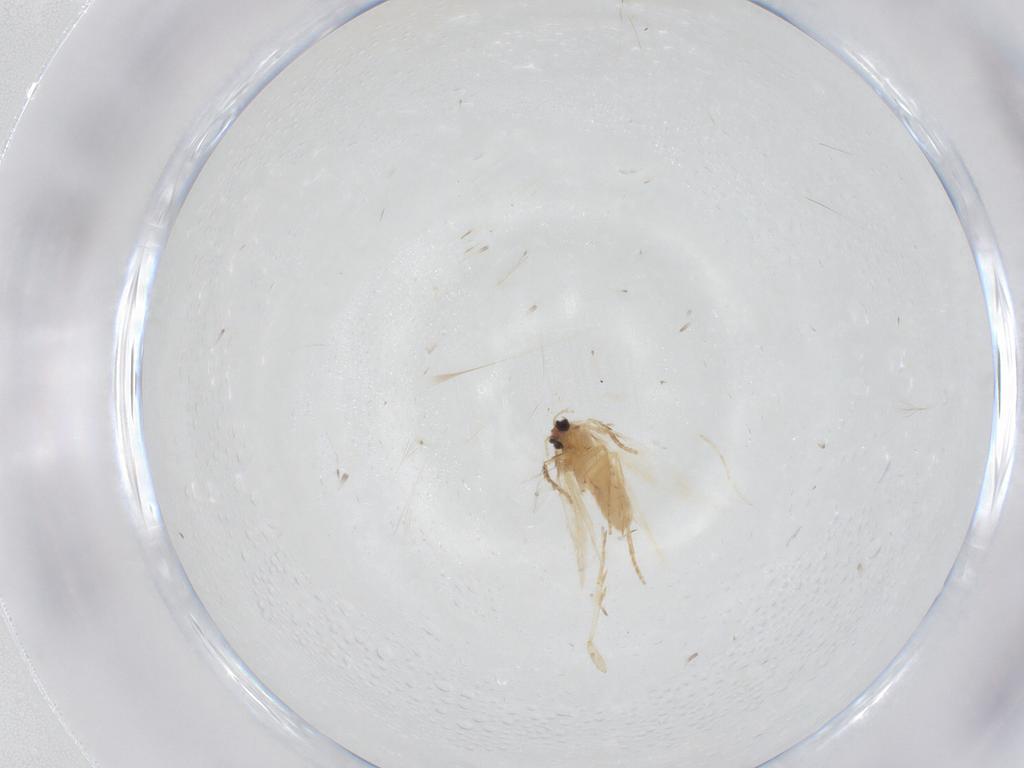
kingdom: Animalia
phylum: Arthropoda
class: Insecta
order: Lepidoptera
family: Nepticulidae
